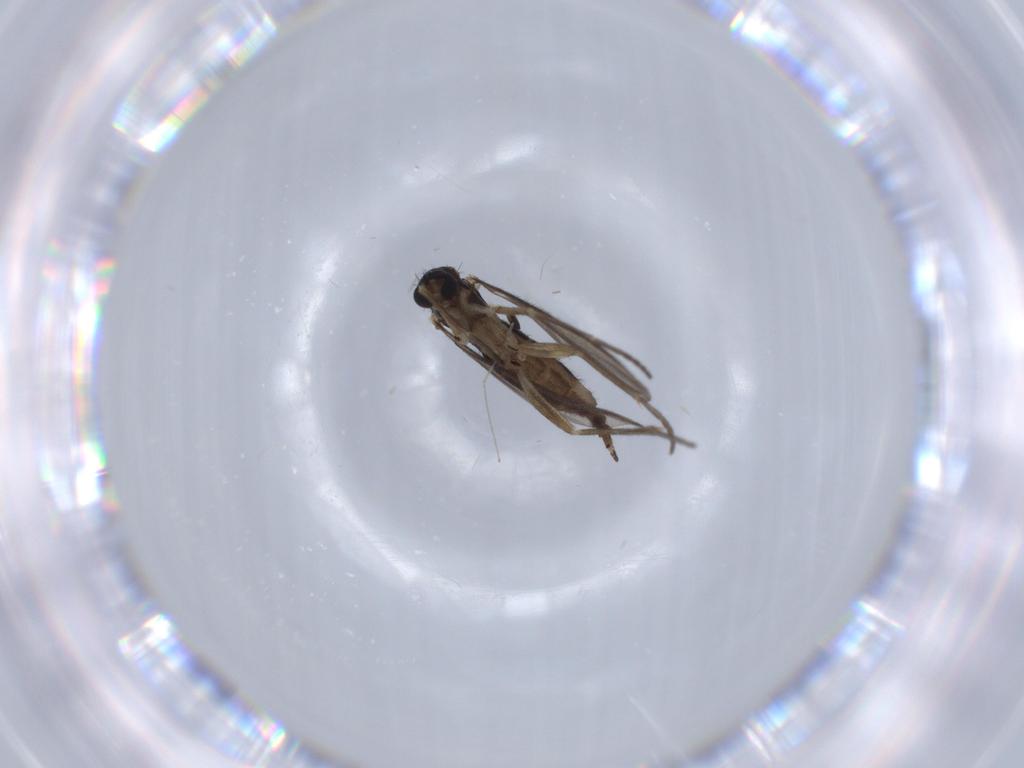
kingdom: Animalia
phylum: Arthropoda
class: Insecta
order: Diptera
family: Sciaridae
